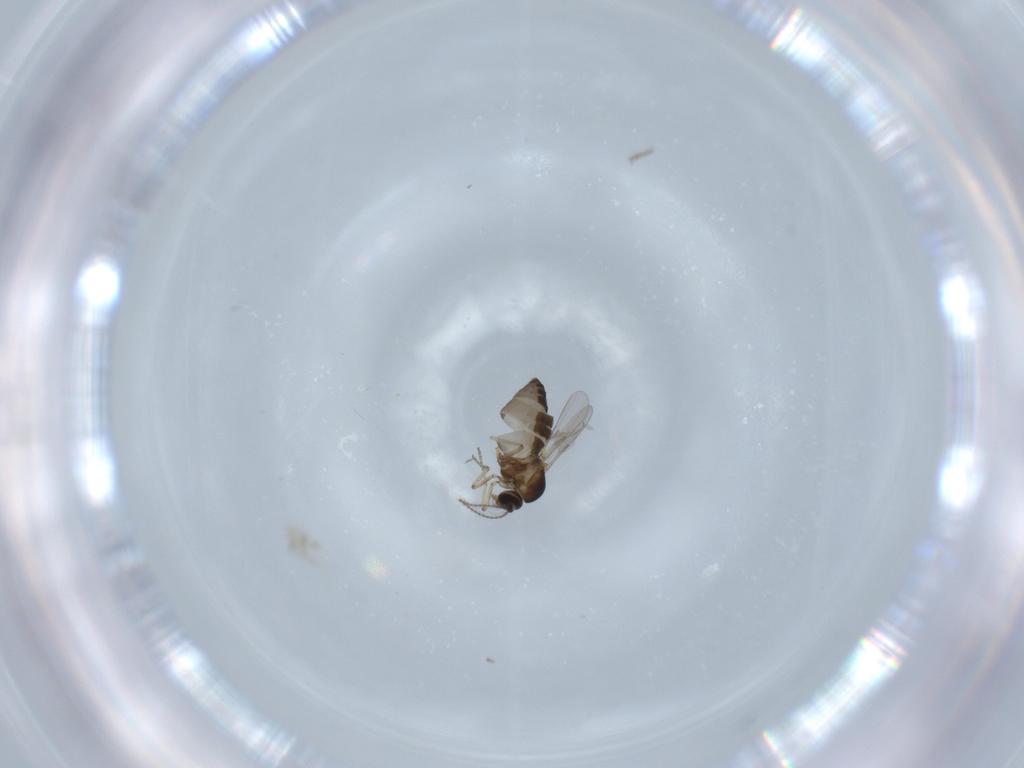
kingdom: Animalia
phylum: Arthropoda
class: Insecta
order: Diptera
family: Ceratopogonidae
